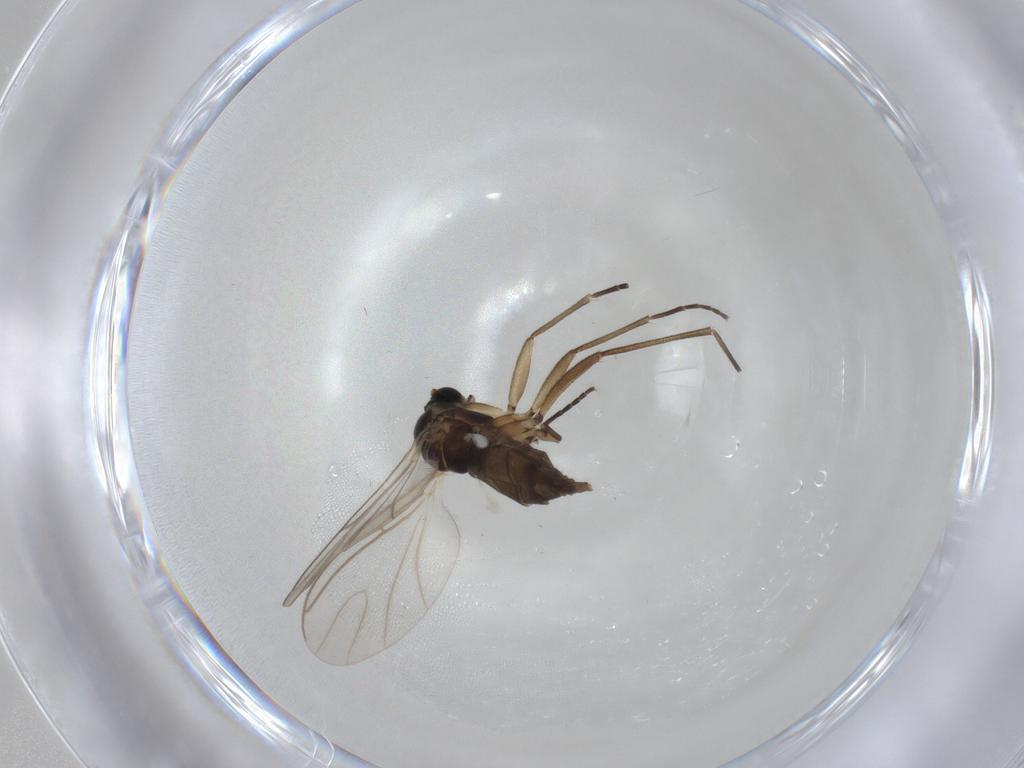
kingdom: Animalia
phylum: Arthropoda
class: Insecta
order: Diptera
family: Chironomidae
